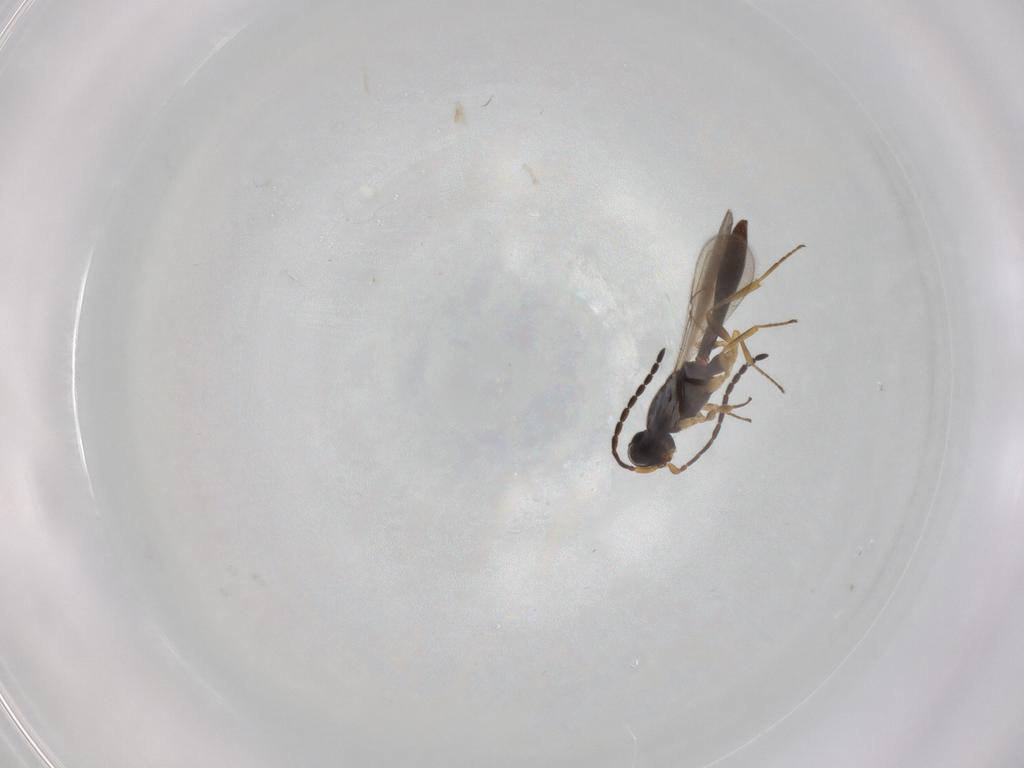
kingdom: Animalia
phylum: Arthropoda
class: Insecta
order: Hymenoptera
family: Scelionidae
